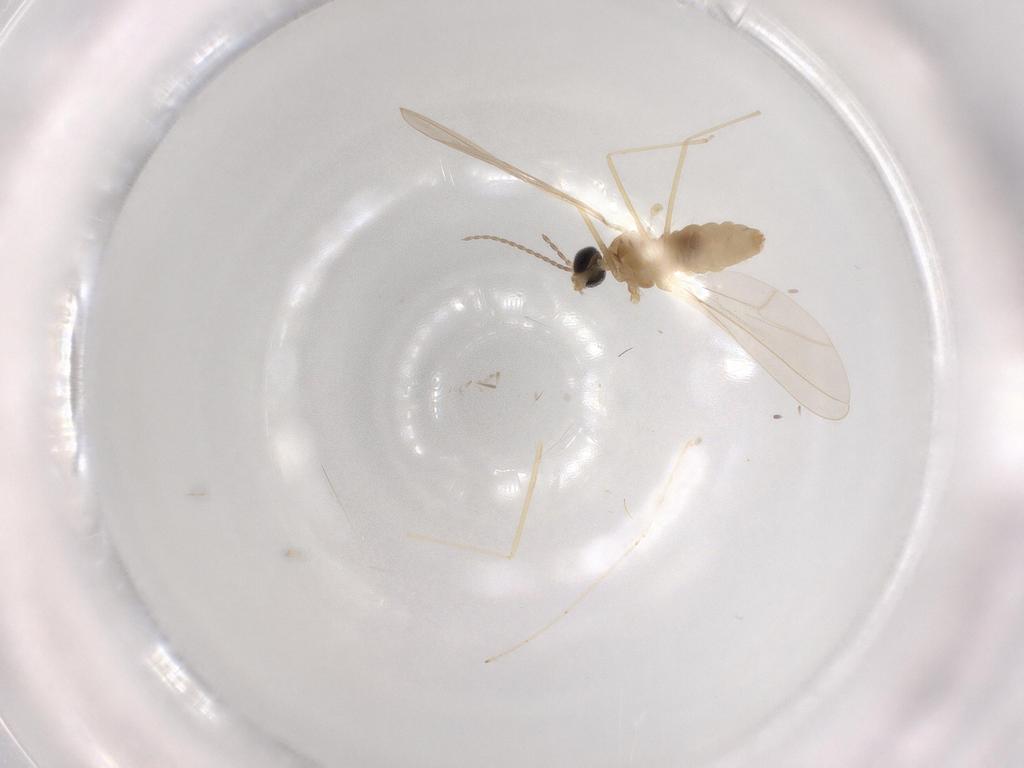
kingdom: Animalia
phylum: Arthropoda
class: Insecta
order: Diptera
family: Cecidomyiidae
